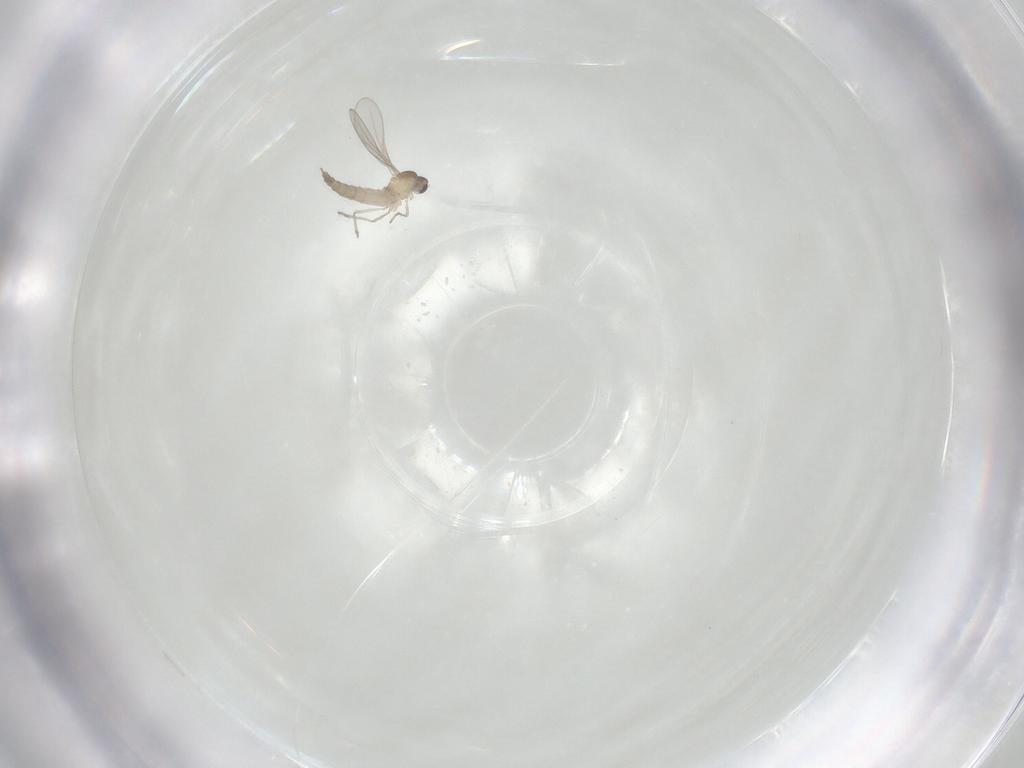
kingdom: Animalia
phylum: Arthropoda
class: Insecta
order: Diptera
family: Cecidomyiidae
